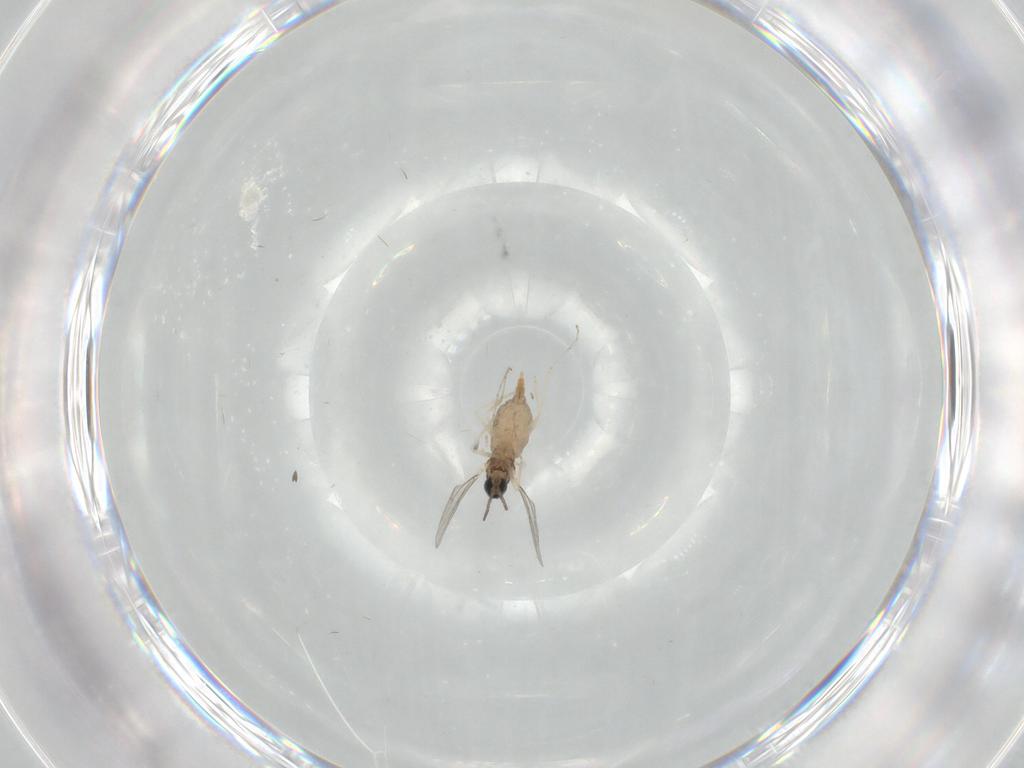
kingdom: Animalia
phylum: Arthropoda
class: Insecta
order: Diptera
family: Cecidomyiidae
